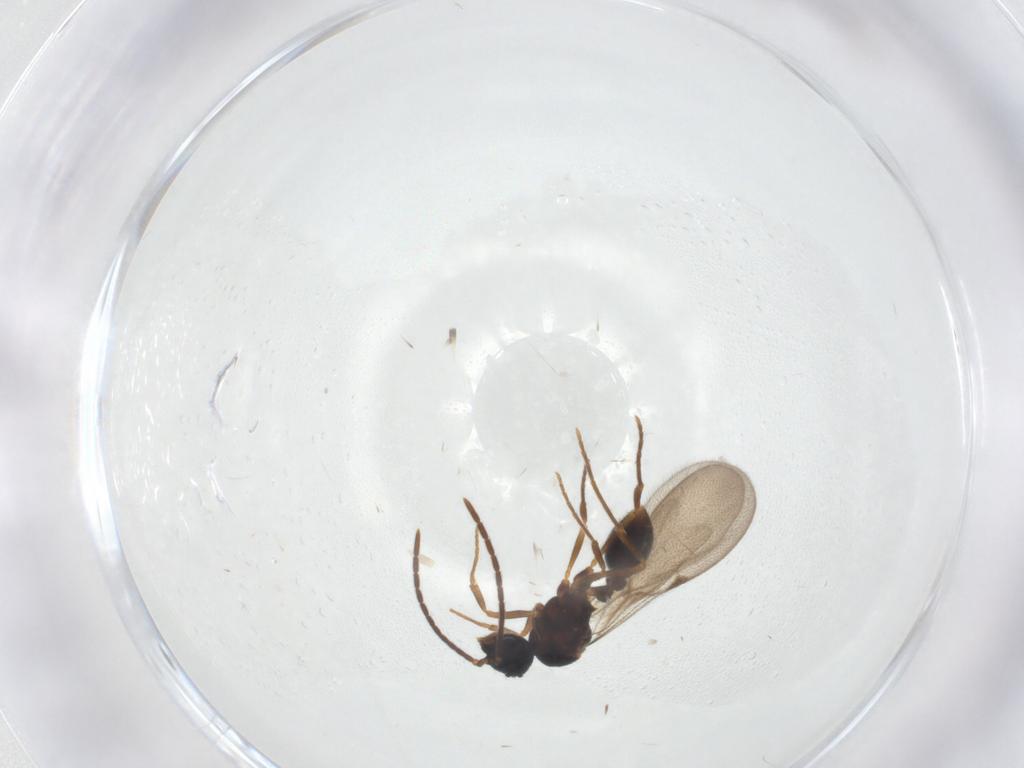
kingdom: Animalia
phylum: Arthropoda
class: Insecta
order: Hymenoptera
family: Formicidae
